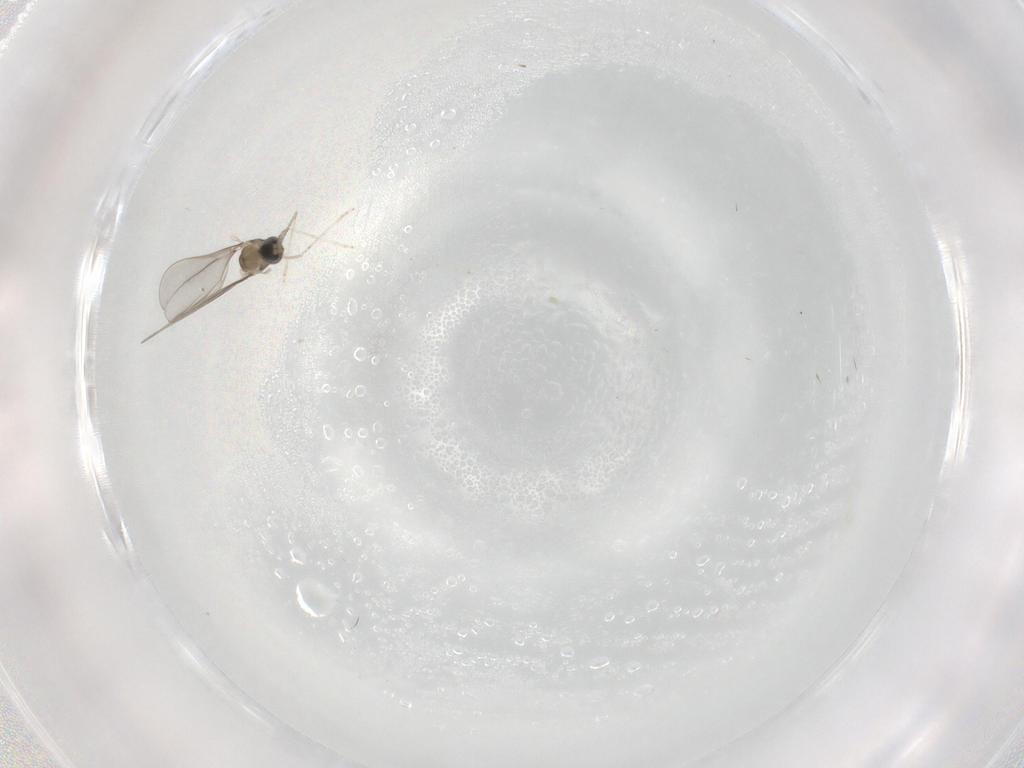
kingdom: Animalia
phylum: Arthropoda
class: Insecta
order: Diptera
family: Cecidomyiidae
